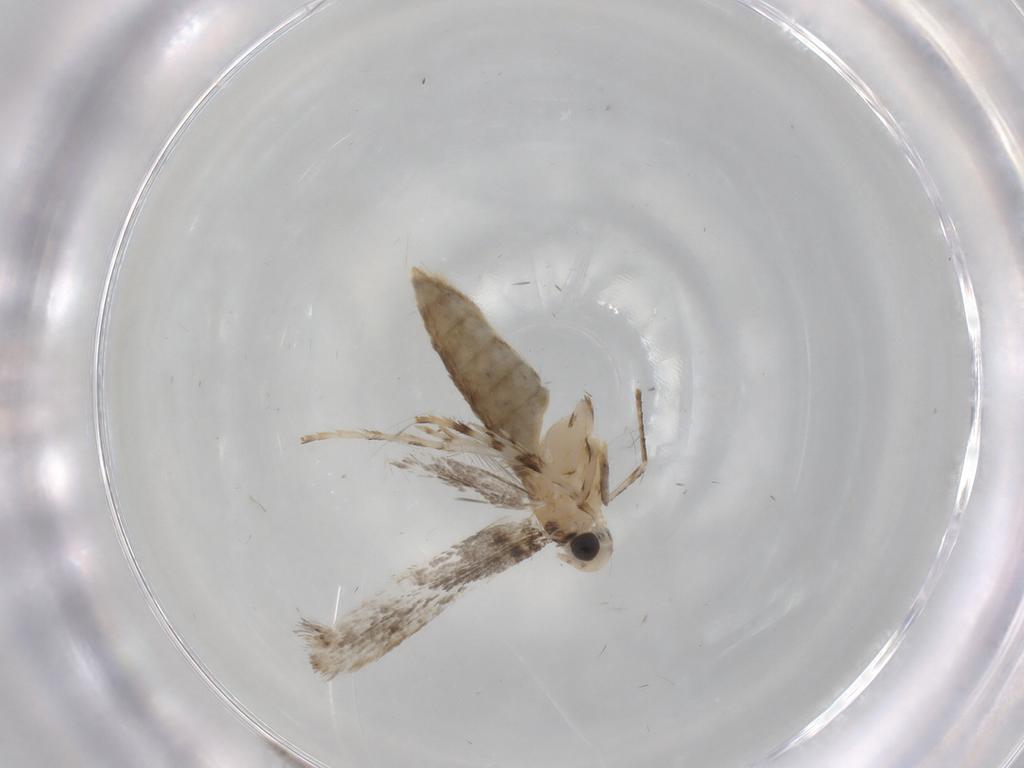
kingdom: Animalia
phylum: Arthropoda
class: Insecta
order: Lepidoptera
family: Gracillariidae
